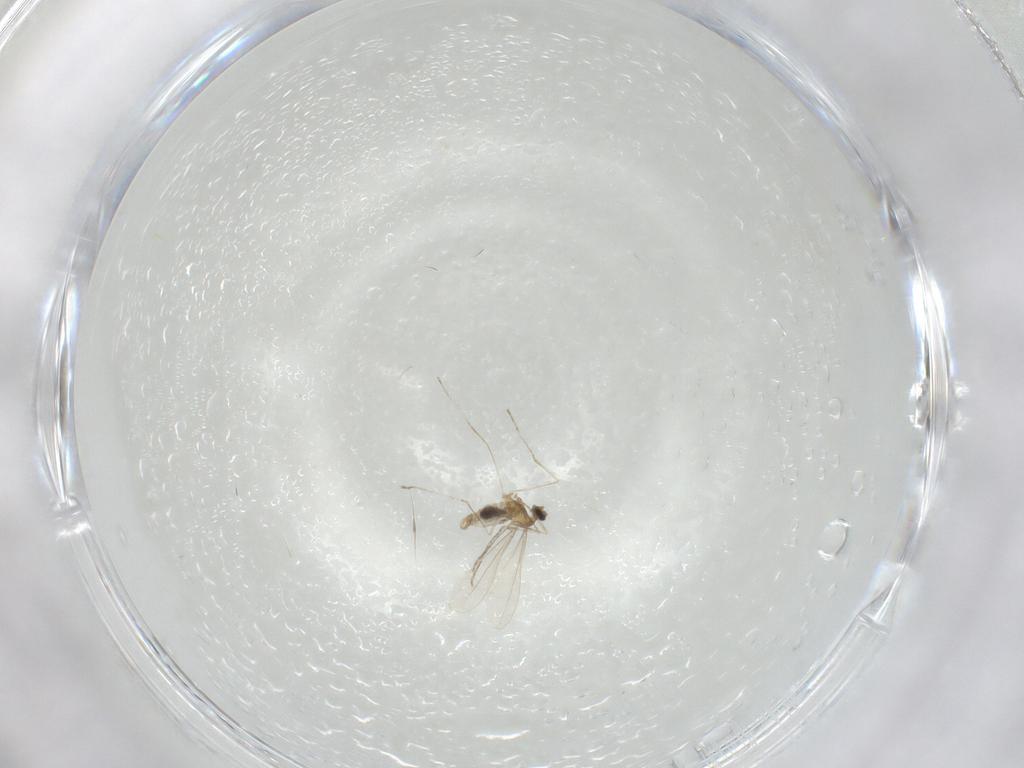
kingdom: Animalia
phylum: Arthropoda
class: Insecta
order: Diptera
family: Cecidomyiidae
